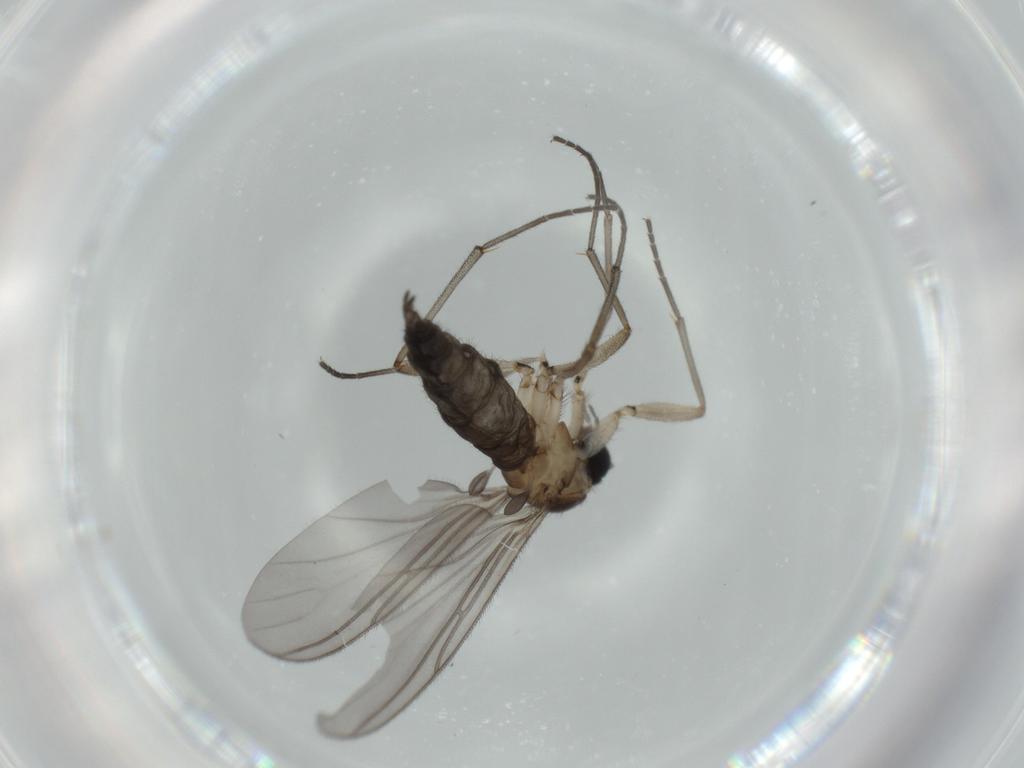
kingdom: Animalia
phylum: Arthropoda
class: Insecta
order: Diptera
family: Sciaridae
